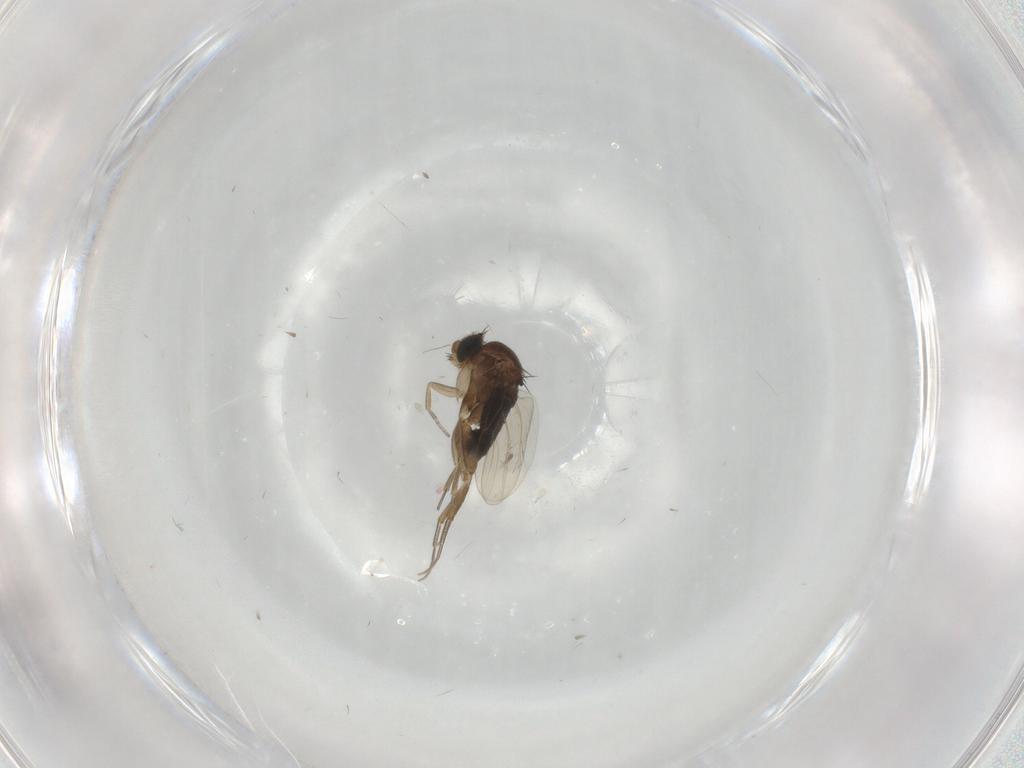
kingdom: Animalia
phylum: Arthropoda
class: Insecta
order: Diptera
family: Phoridae
